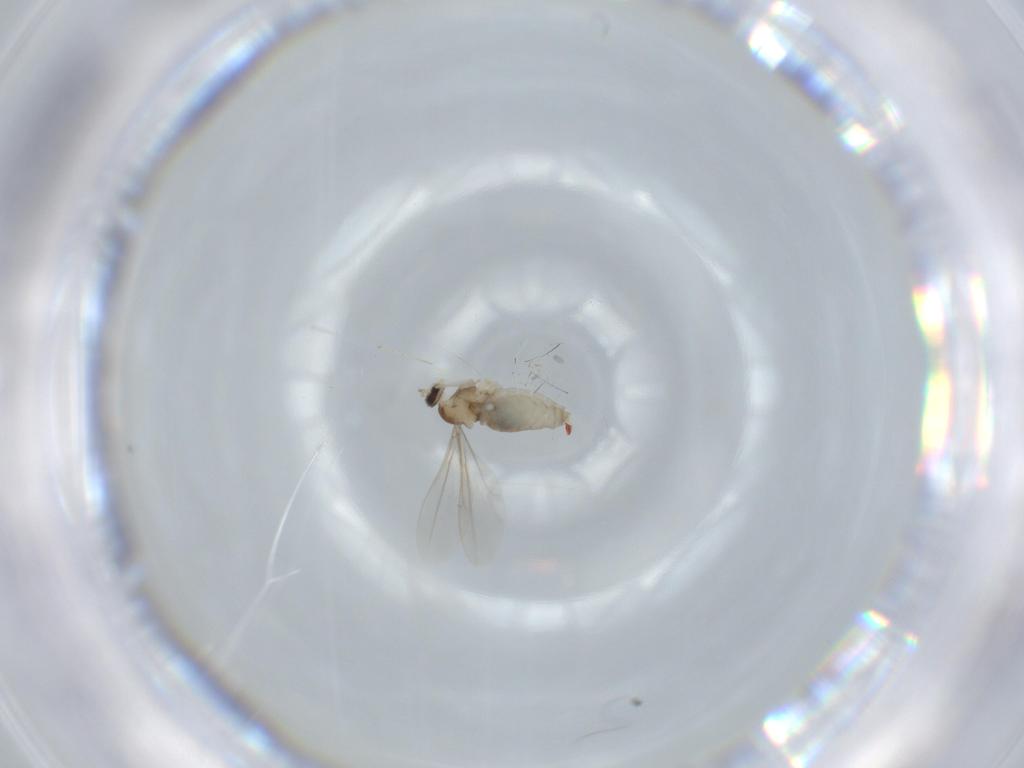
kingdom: Animalia
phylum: Arthropoda
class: Insecta
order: Diptera
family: Cecidomyiidae
